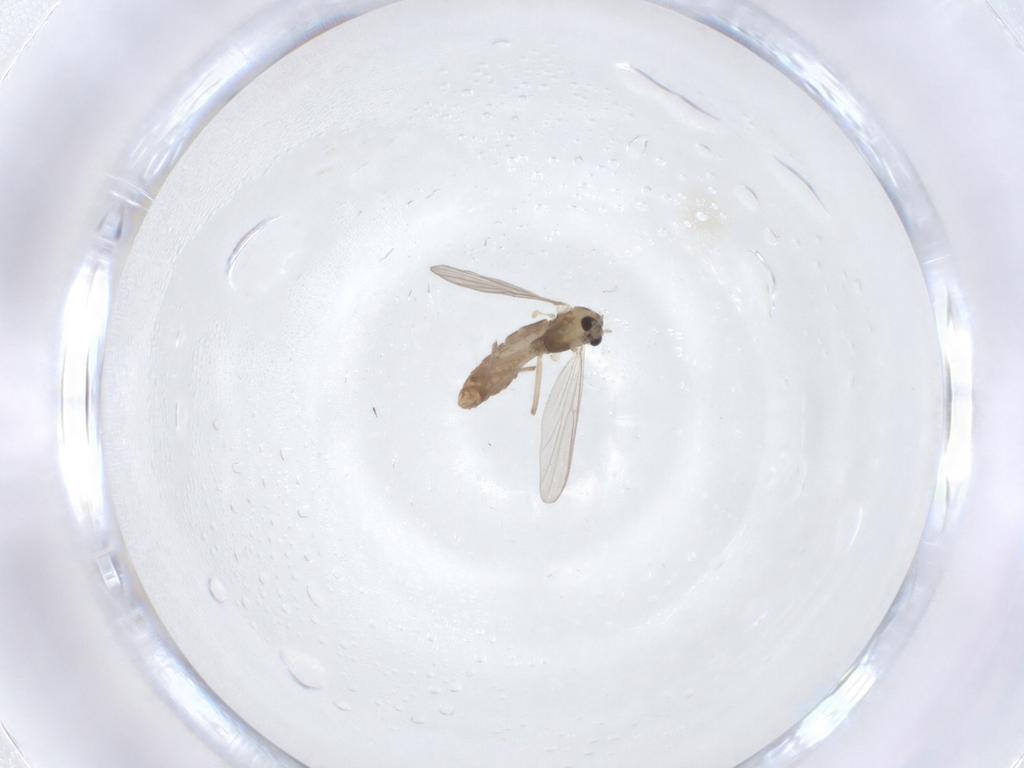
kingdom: Animalia
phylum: Arthropoda
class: Insecta
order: Diptera
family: Chironomidae
